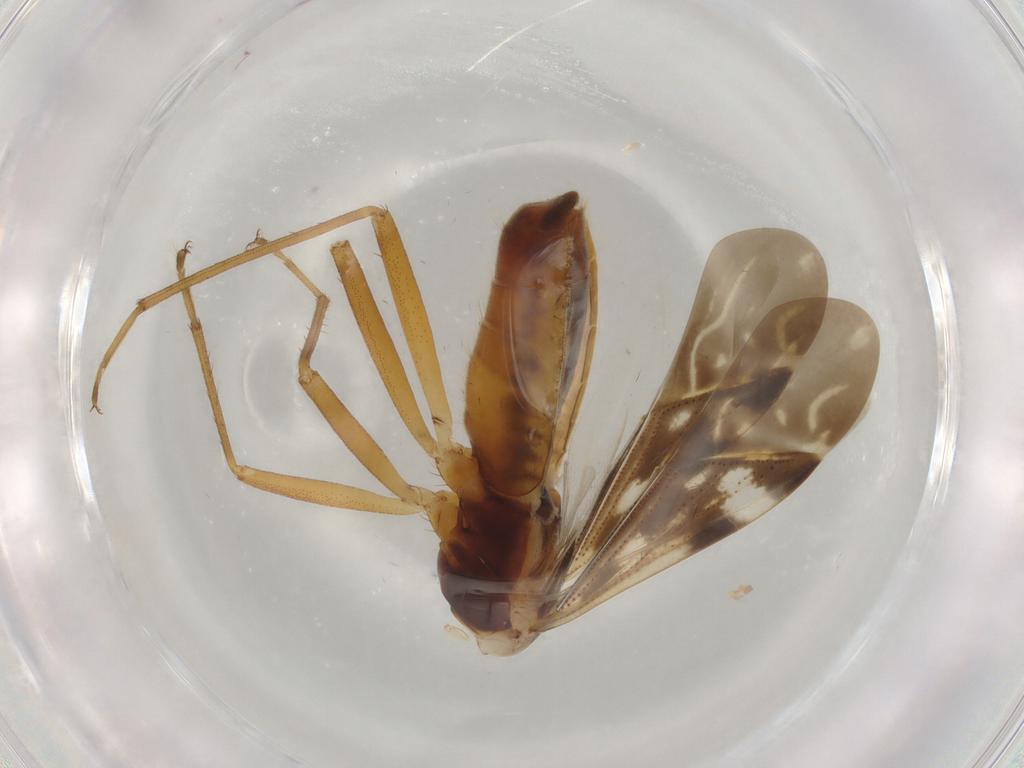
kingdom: Animalia
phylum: Arthropoda
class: Insecta
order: Hemiptera
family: Rhyparochromidae
